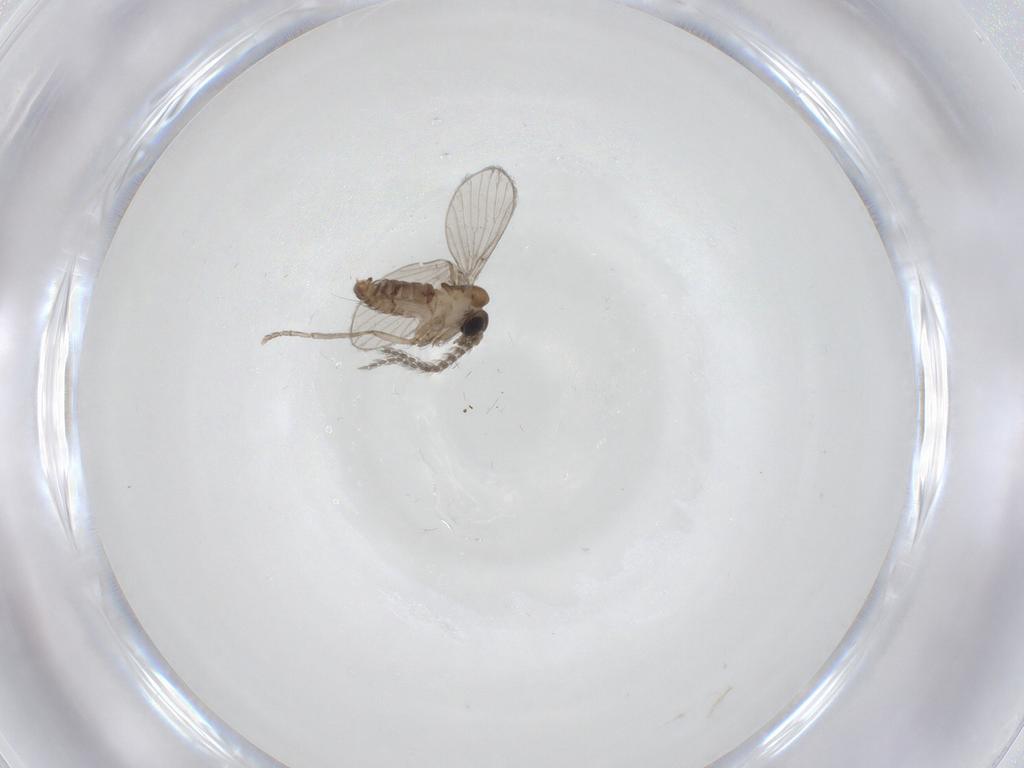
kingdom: Animalia
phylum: Arthropoda
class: Insecta
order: Diptera
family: Psychodidae
